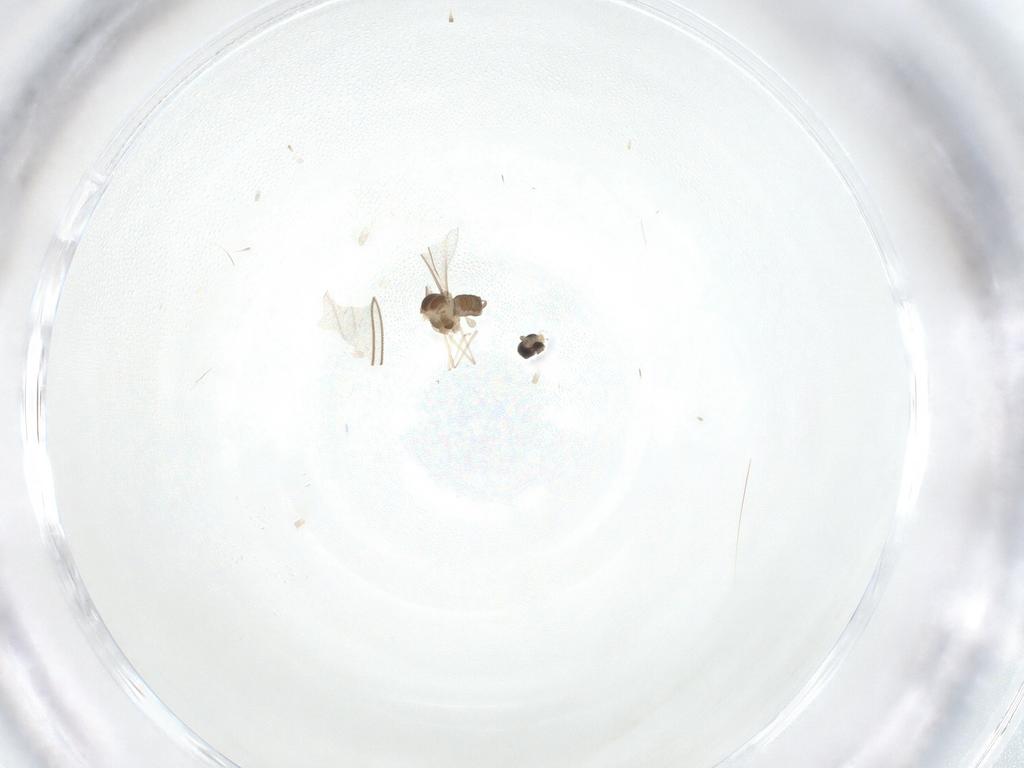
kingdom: Animalia
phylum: Arthropoda
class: Insecta
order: Diptera
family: Cecidomyiidae
